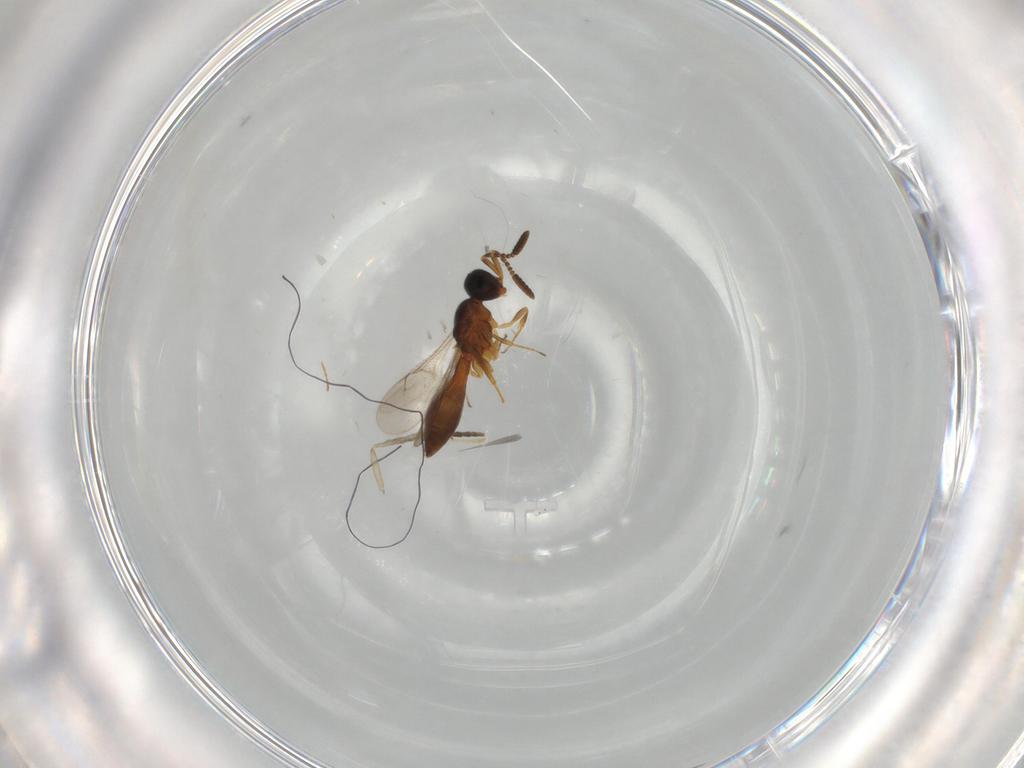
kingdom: Animalia
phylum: Arthropoda
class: Insecta
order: Hymenoptera
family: Scelionidae
